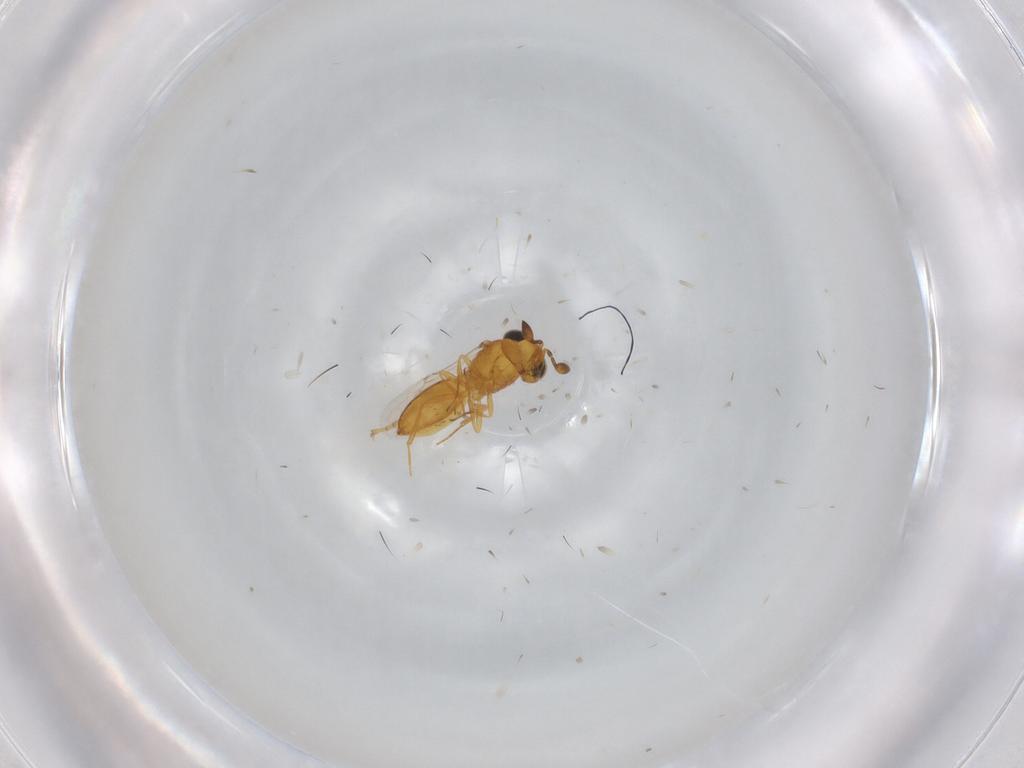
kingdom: Animalia
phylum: Arthropoda
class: Insecta
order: Hymenoptera
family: Scelionidae
